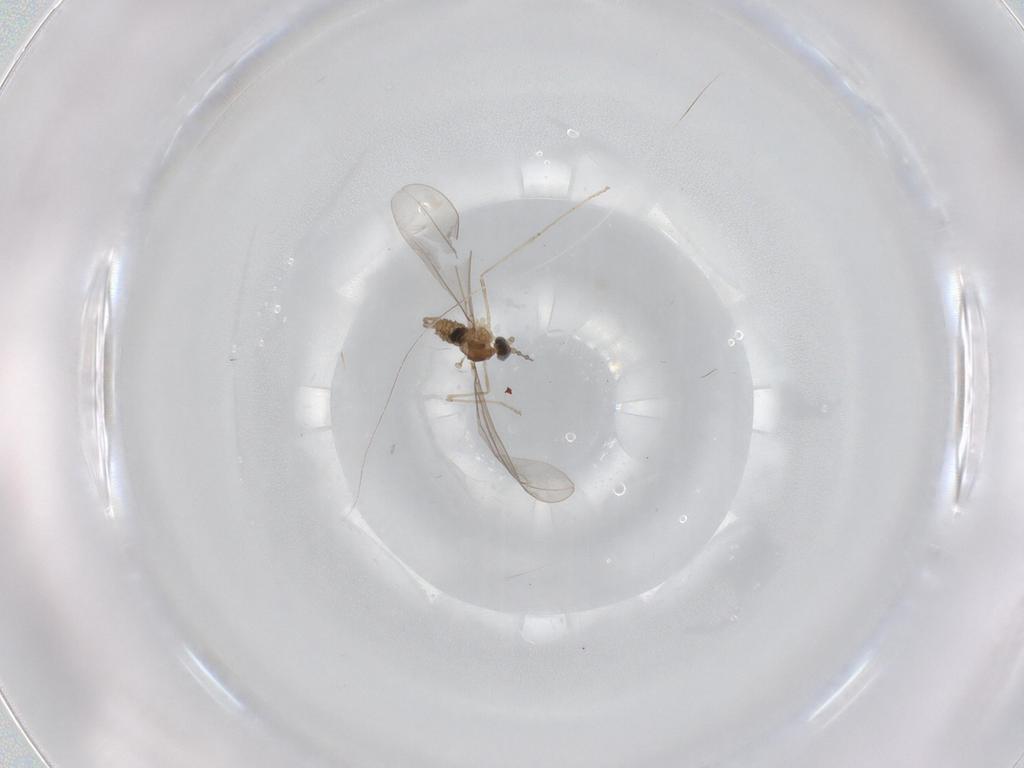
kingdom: Animalia
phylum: Arthropoda
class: Insecta
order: Diptera
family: Cecidomyiidae
